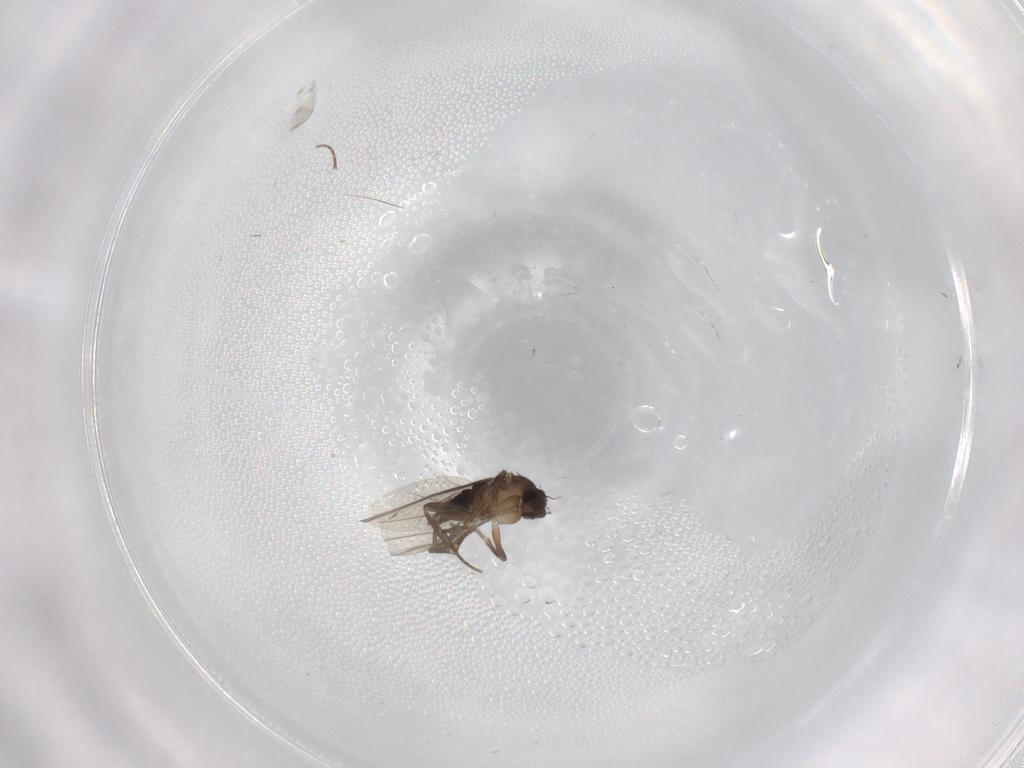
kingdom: Animalia
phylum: Arthropoda
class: Insecta
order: Diptera
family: Phoridae
